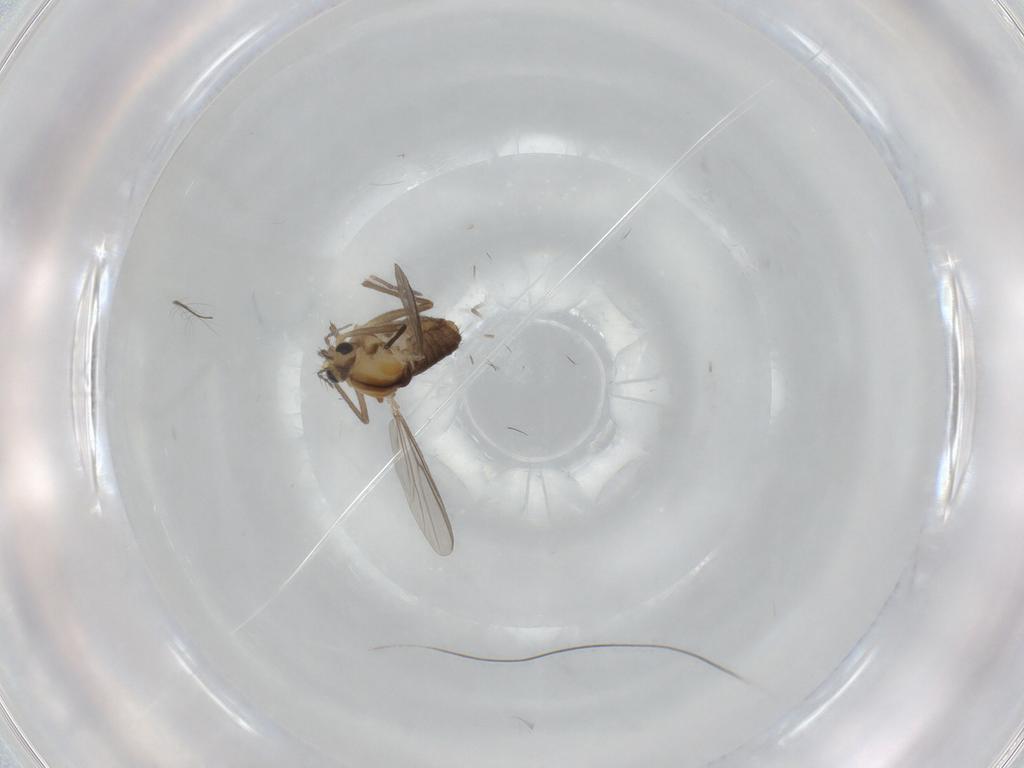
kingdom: Animalia
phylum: Arthropoda
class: Insecta
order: Diptera
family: Chironomidae
